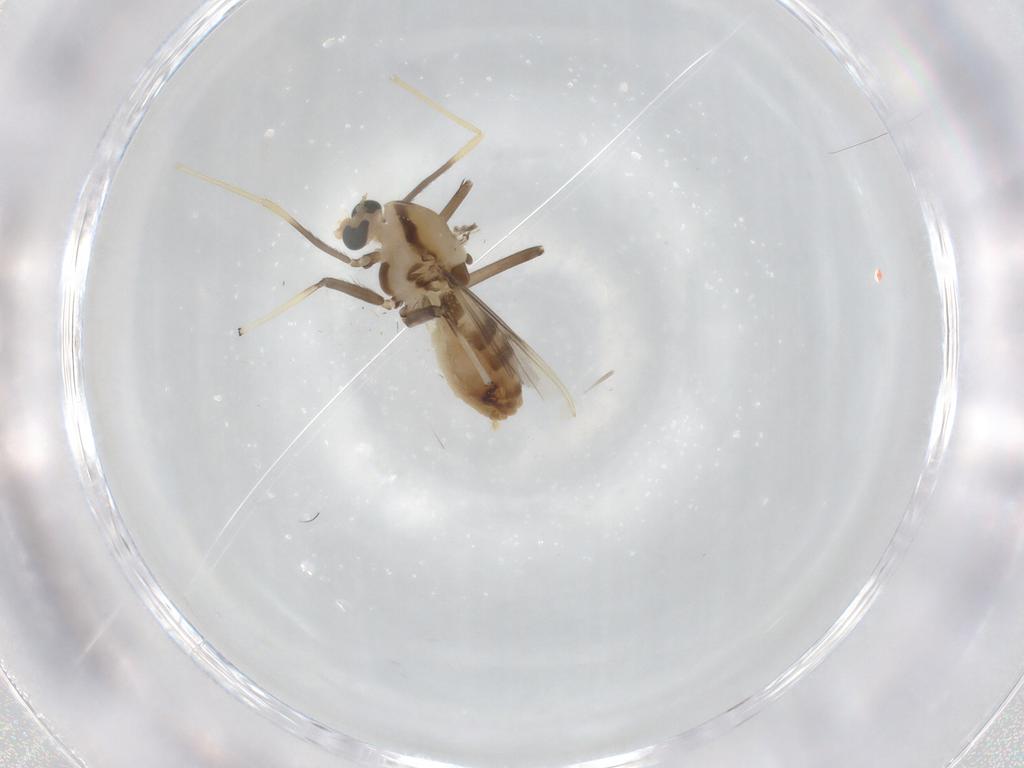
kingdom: Animalia
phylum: Arthropoda
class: Insecta
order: Diptera
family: Chironomidae
